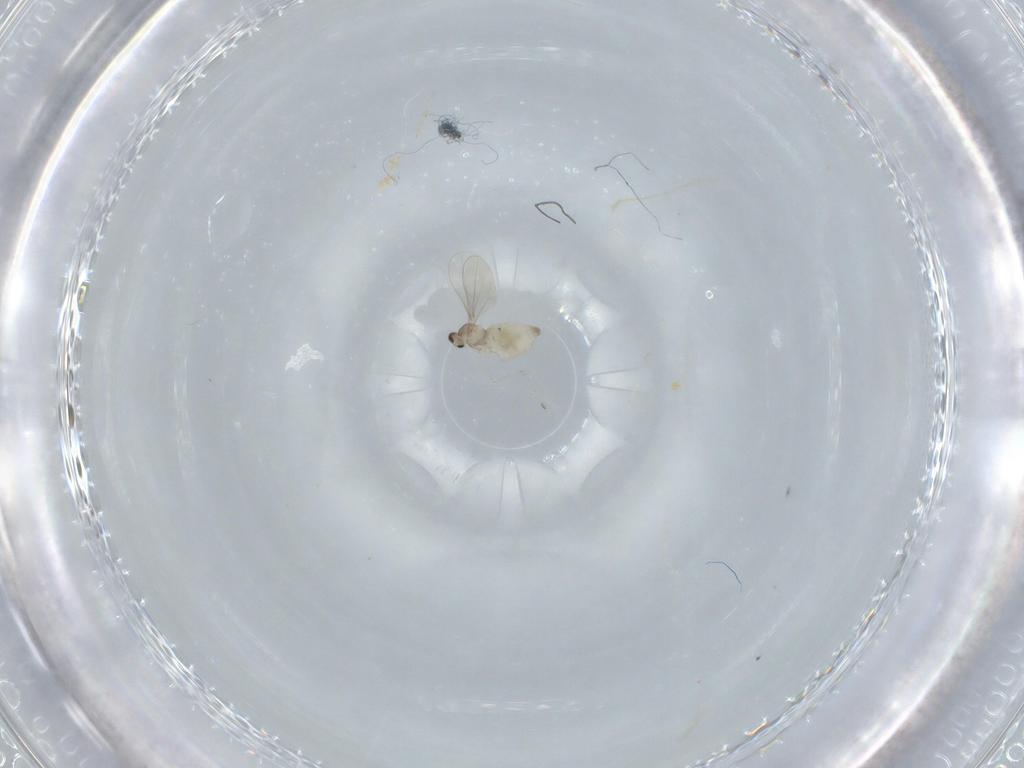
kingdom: Animalia
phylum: Arthropoda
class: Insecta
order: Diptera
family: Cecidomyiidae
